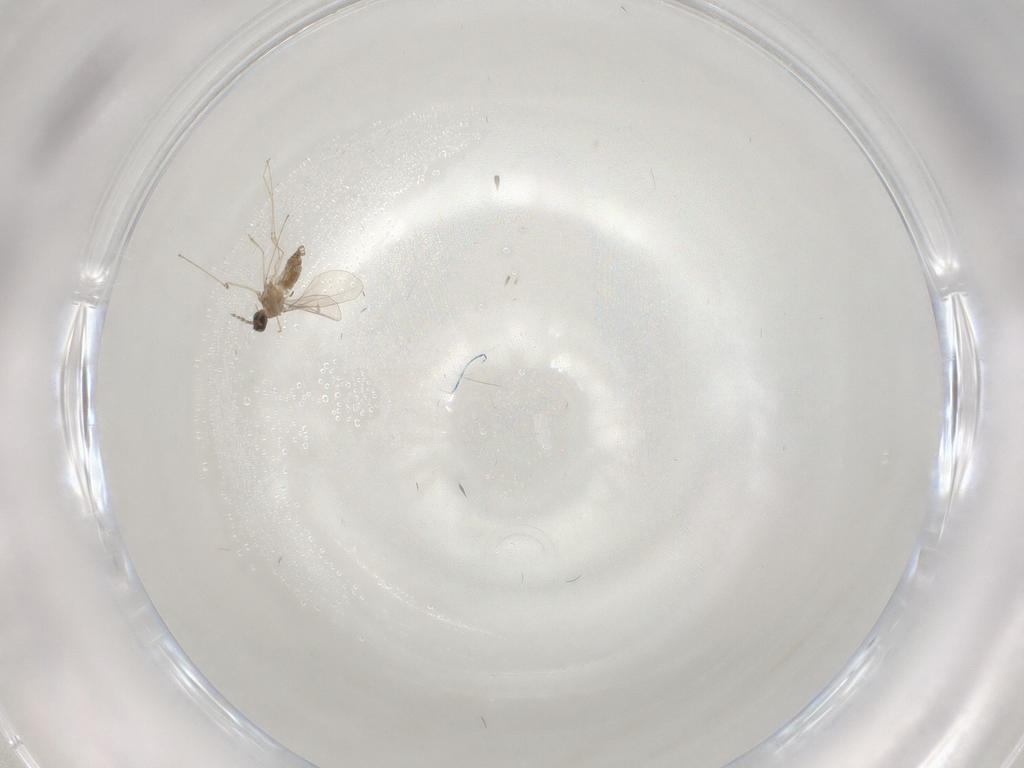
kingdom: Animalia
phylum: Arthropoda
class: Insecta
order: Diptera
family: Cecidomyiidae
